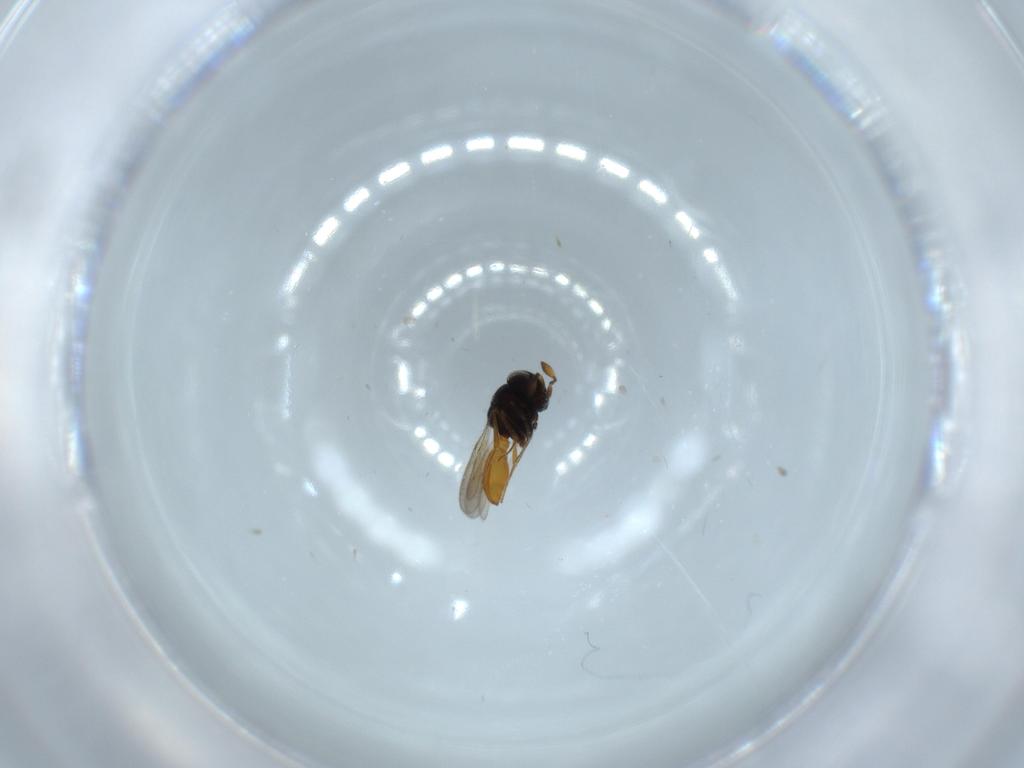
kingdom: Animalia
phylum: Arthropoda
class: Insecta
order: Hymenoptera
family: Scelionidae
